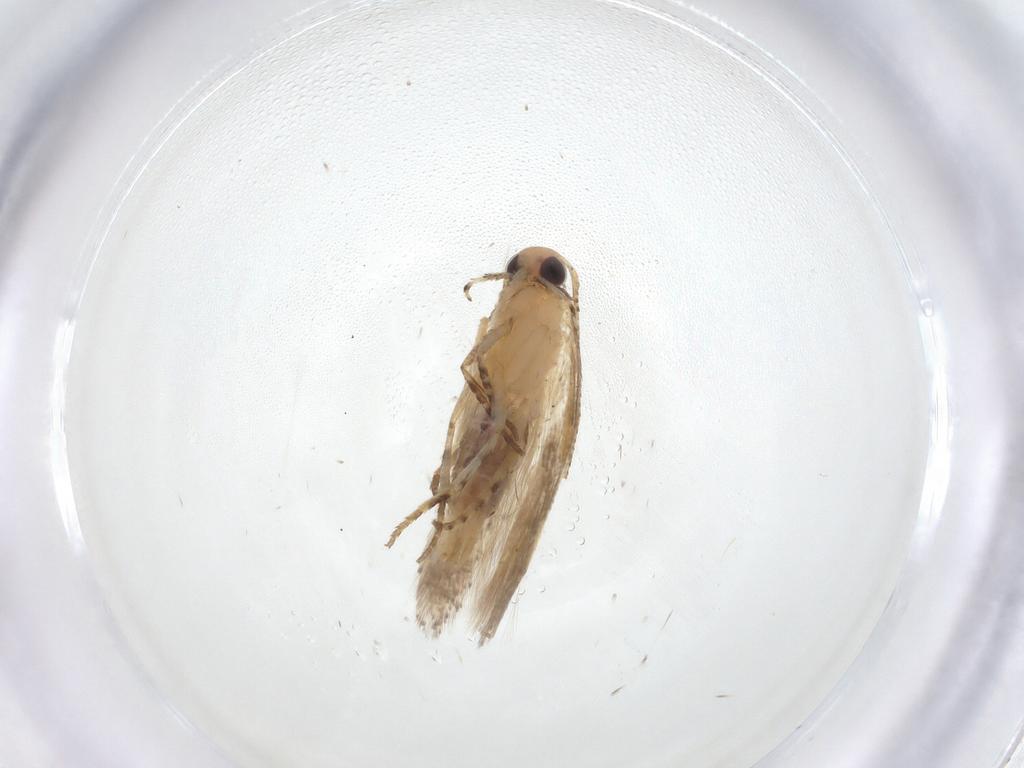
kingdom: Animalia
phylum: Arthropoda
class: Insecta
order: Lepidoptera
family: Gelechiidae
